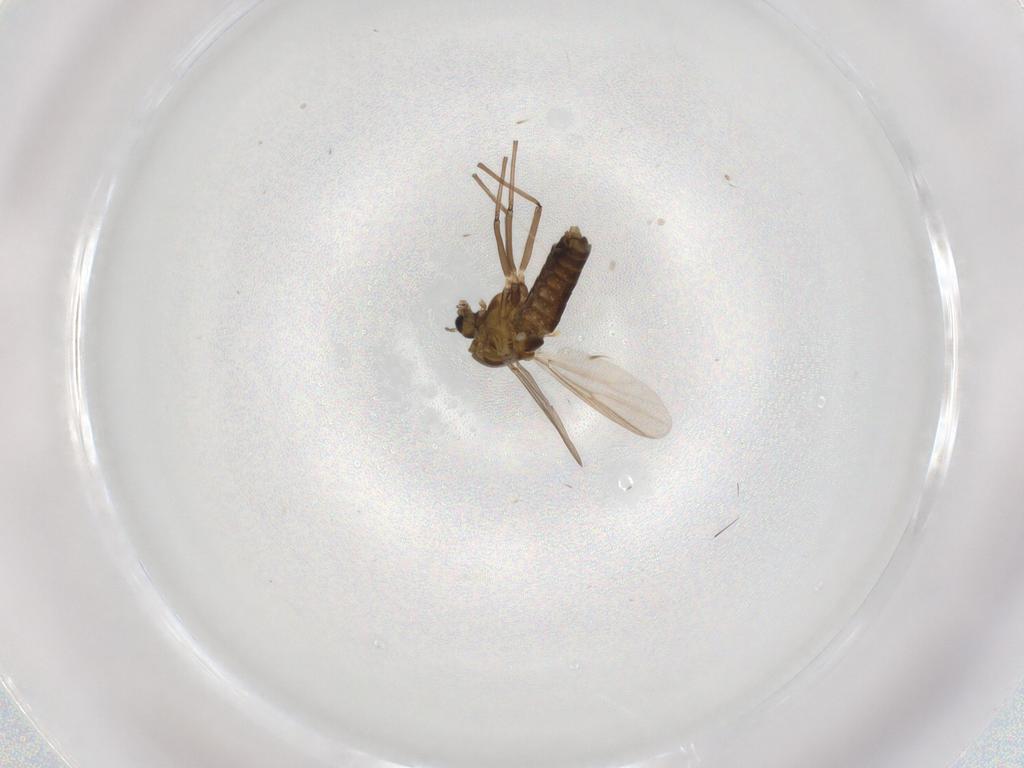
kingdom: Animalia
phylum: Arthropoda
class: Insecta
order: Diptera
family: Chironomidae
